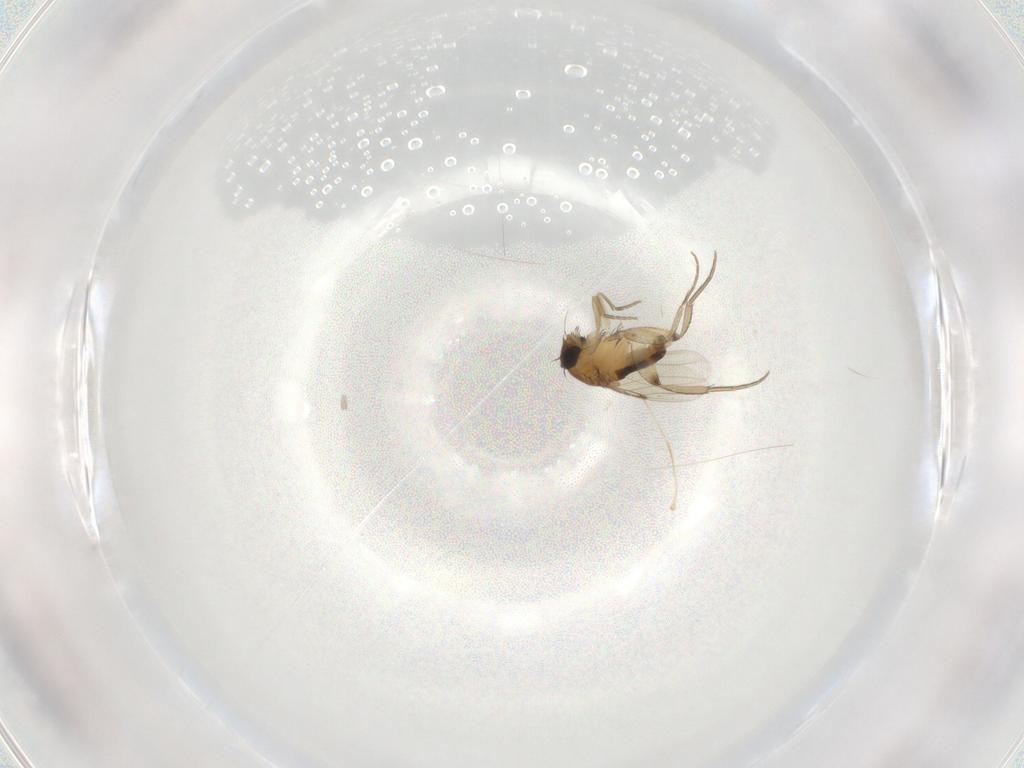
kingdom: Animalia
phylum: Arthropoda
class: Insecta
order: Diptera
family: Phoridae
